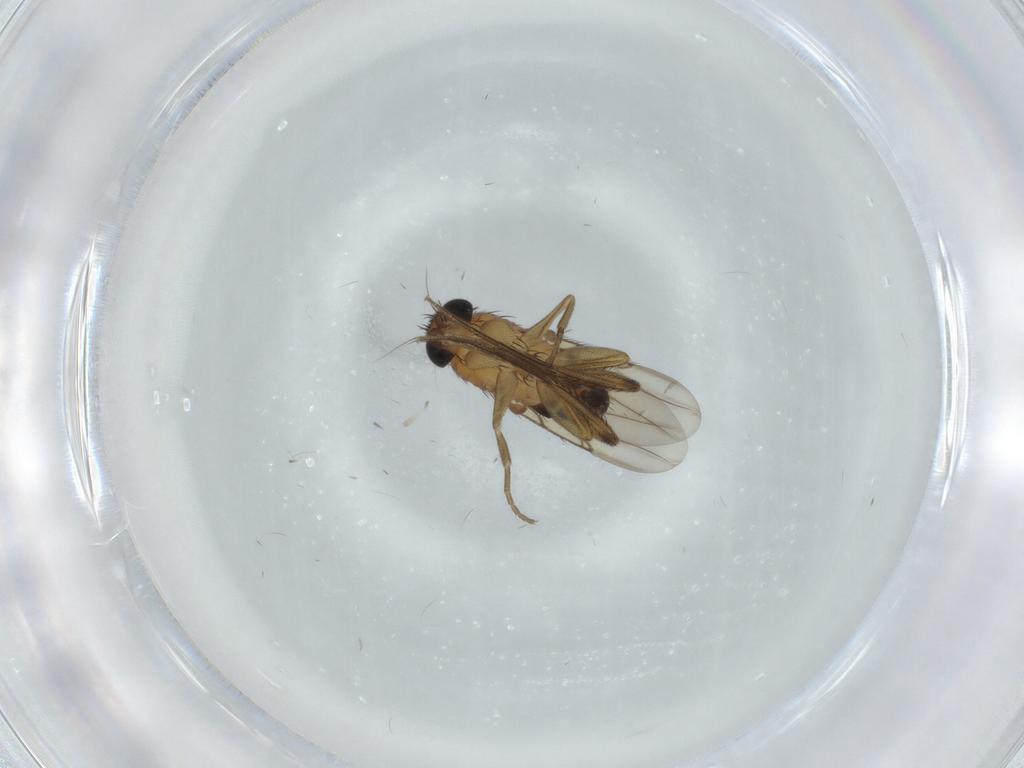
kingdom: Animalia
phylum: Arthropoda
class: Insecta
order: Diptera
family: Phoridae
